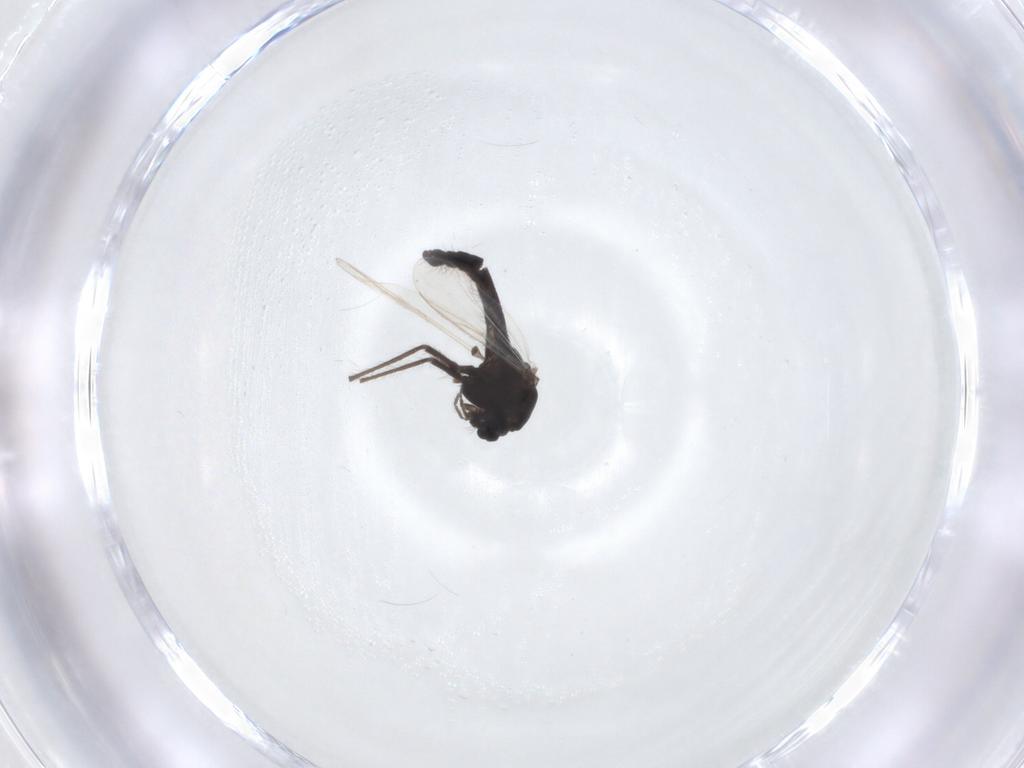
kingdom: Animalia
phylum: Arthropoda
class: Insecta
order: Diptera
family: Chironomidae
